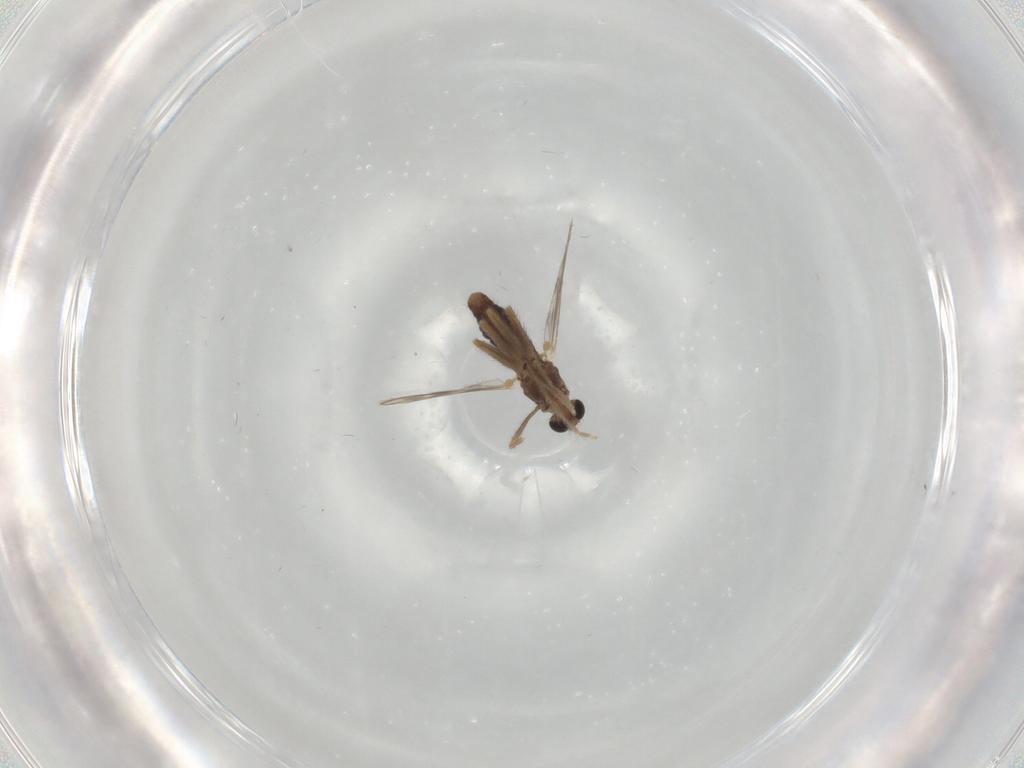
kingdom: Animalia
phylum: Arthropoda
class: Insecta
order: Diptera
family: Chironomidae
